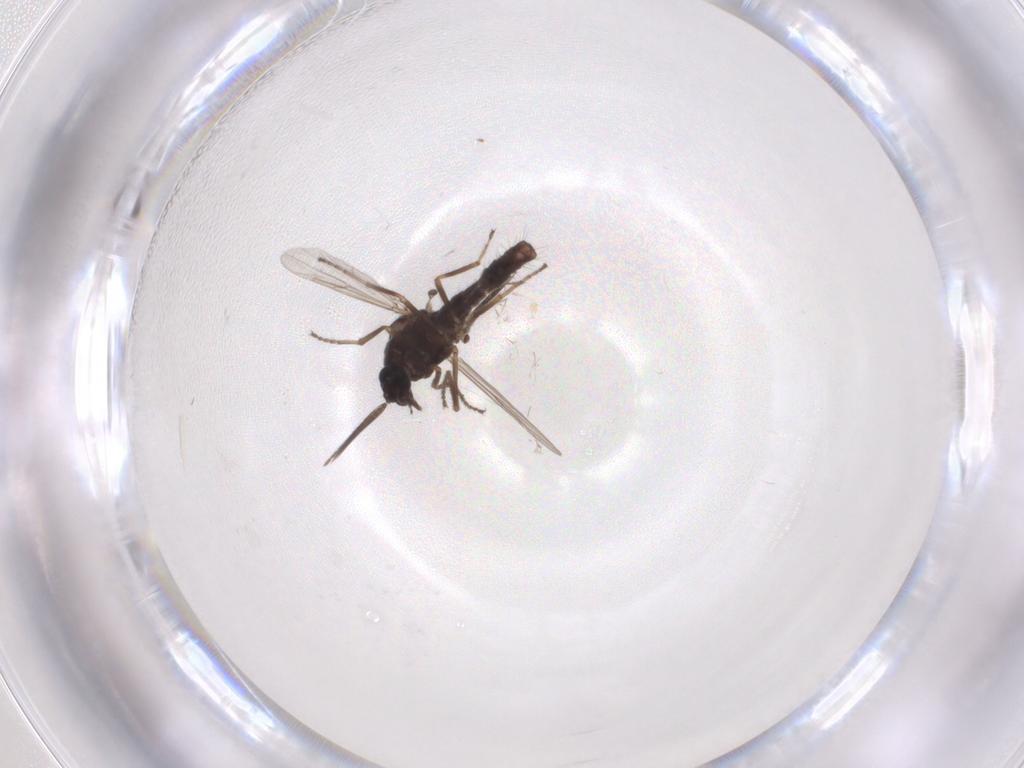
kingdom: Animalia
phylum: Arthropoda
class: Insecta
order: Diptera
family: Ceratopogonidae
